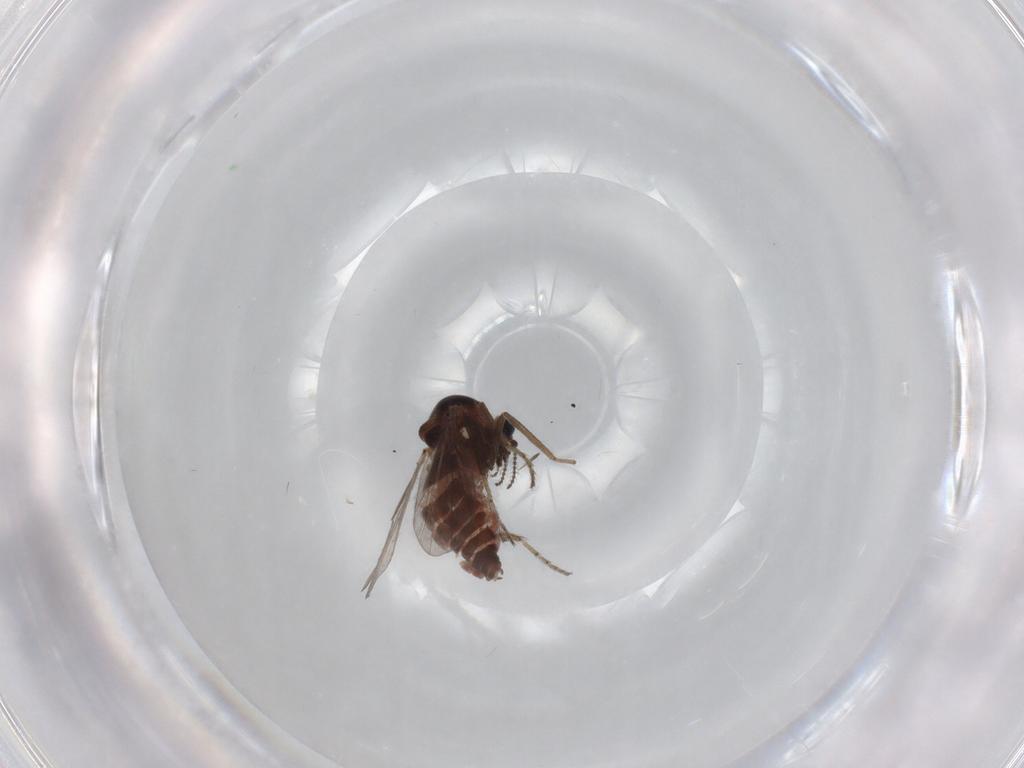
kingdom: Animalia
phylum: Arthropoda
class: Insecta
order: Diptera
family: Ceratopogonidae
